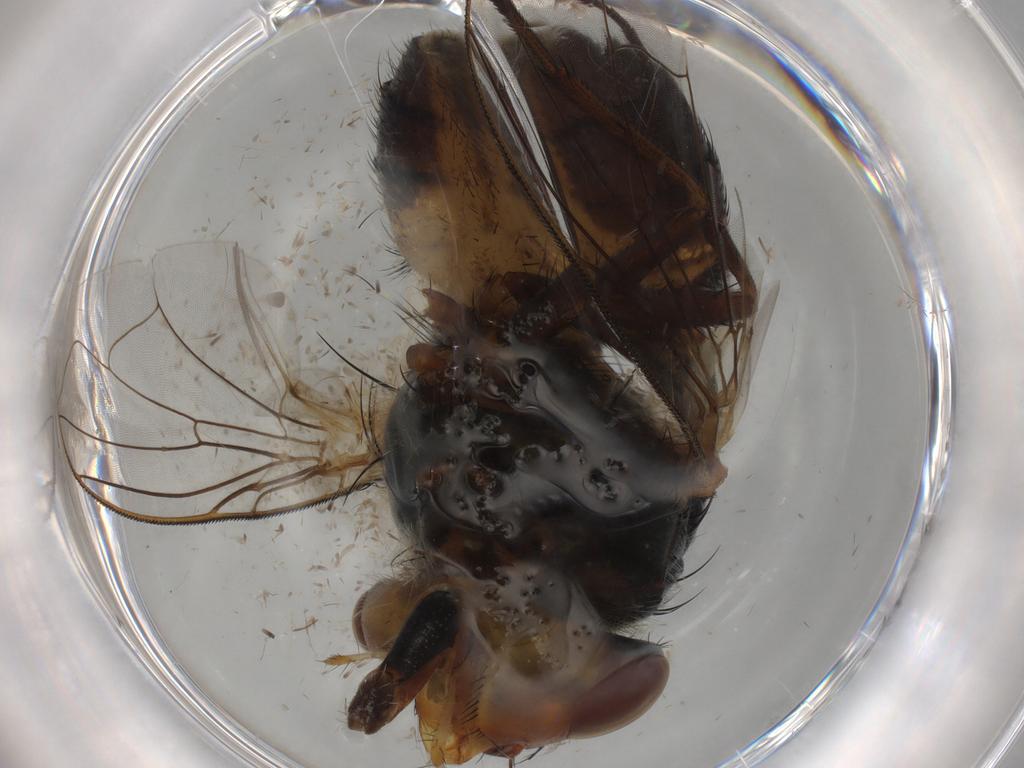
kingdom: Animalia
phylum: Arthropoda
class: Insecta
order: Diptera
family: Calliphoridae
